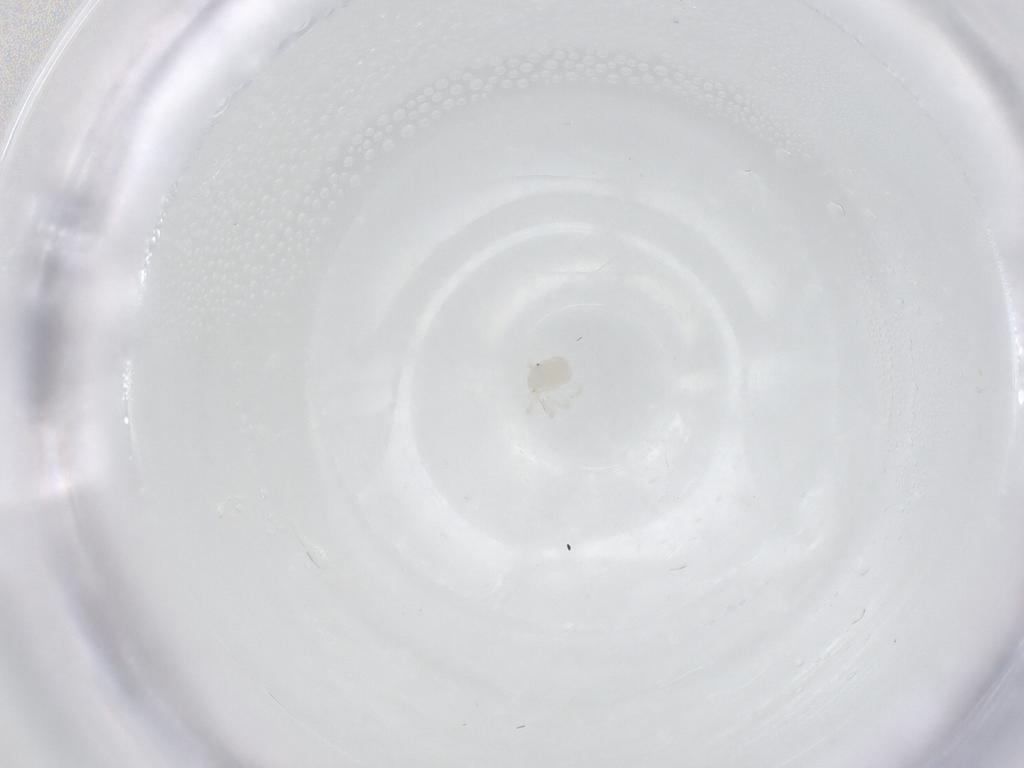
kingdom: Animalia
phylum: Arthropoda
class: Arachnida
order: Trombidiformes
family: Anystidae
